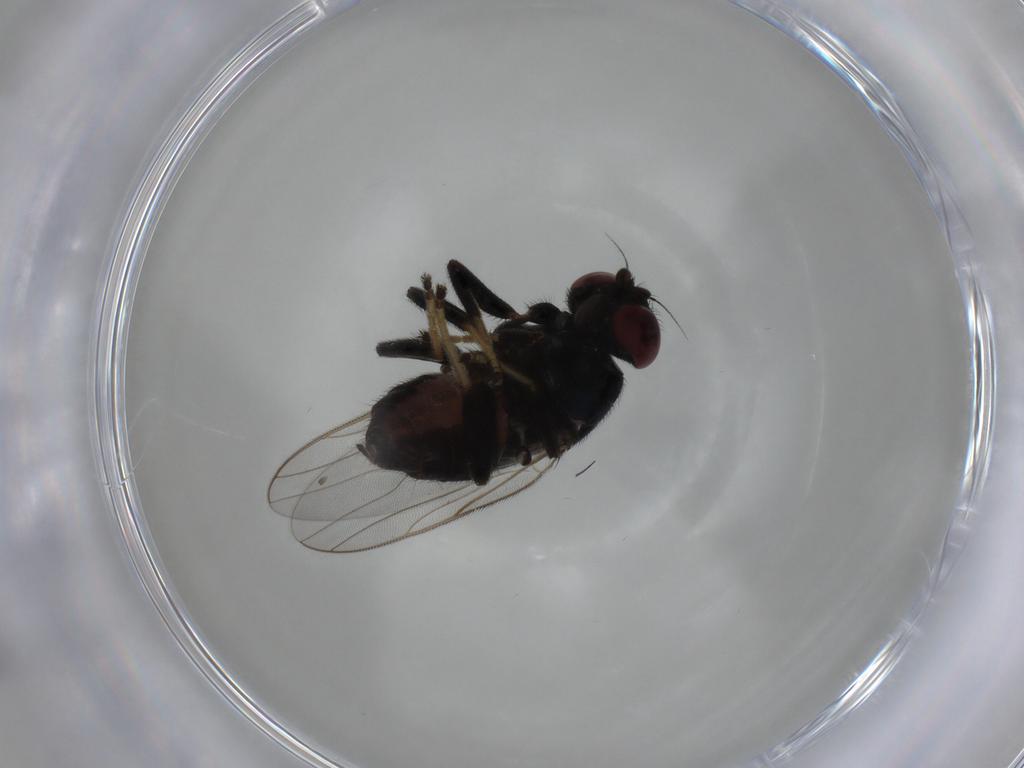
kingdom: Animalia
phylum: Arthropoda
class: Insecta
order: Diptera
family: Chloropidae
